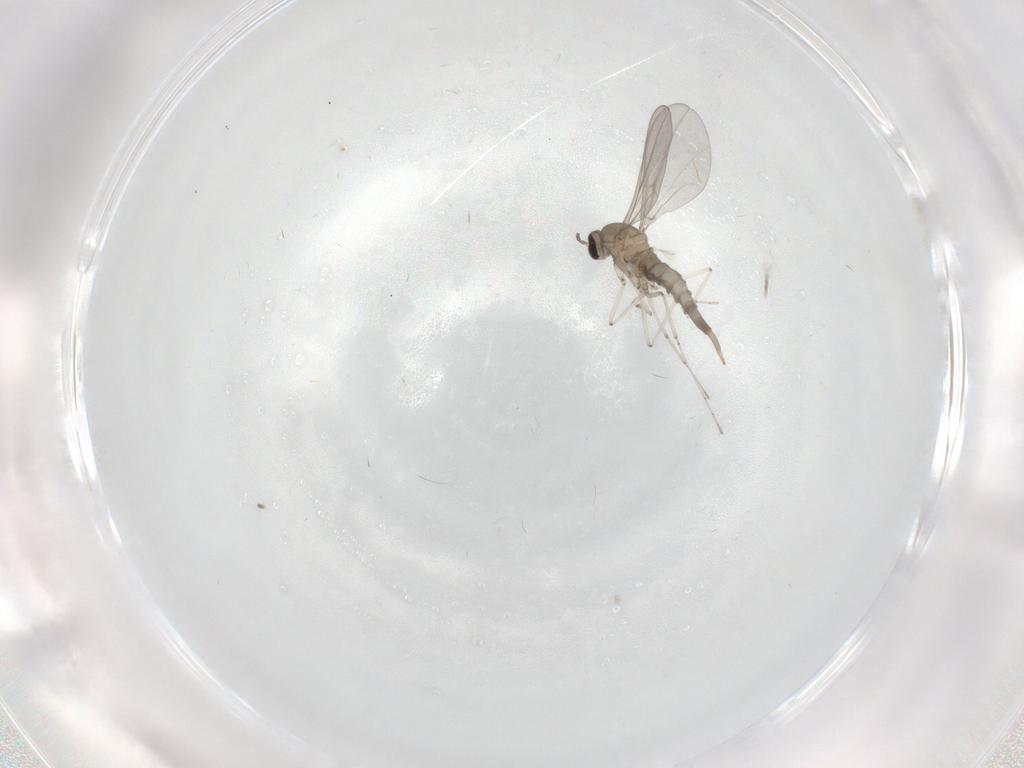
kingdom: Animalia
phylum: Arthropoda
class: Insecta
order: Diptera
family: Cecidomyiidae
